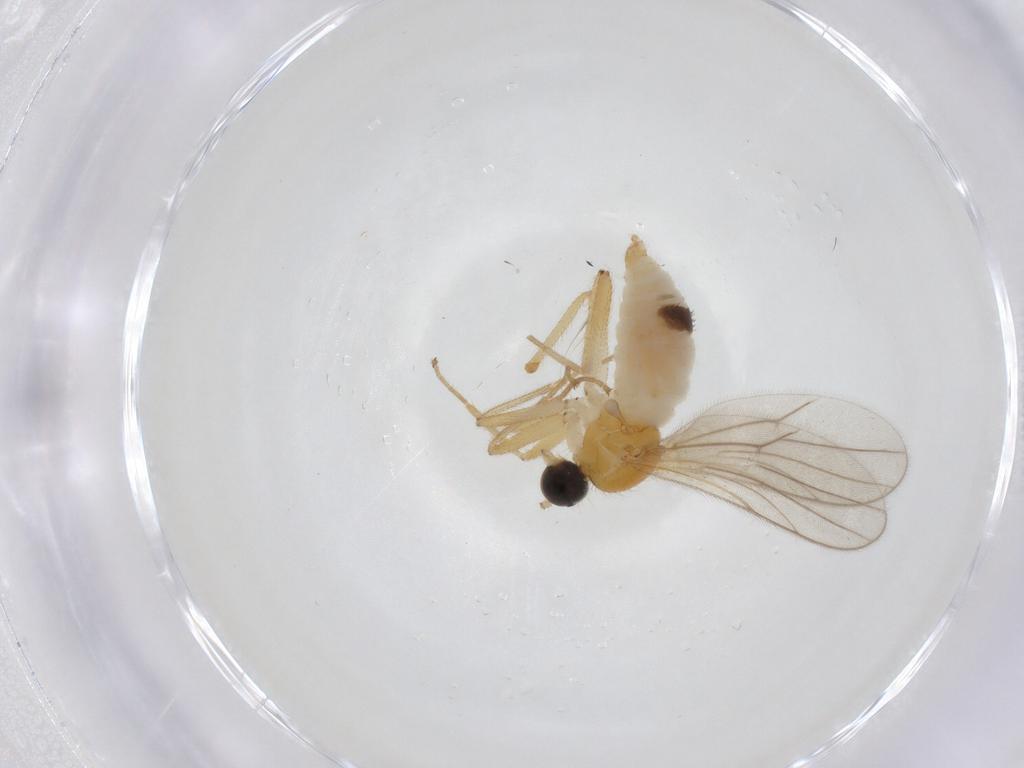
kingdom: Animalia
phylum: Arthropoda
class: Insecta
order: Diptera
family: Hybotidae
